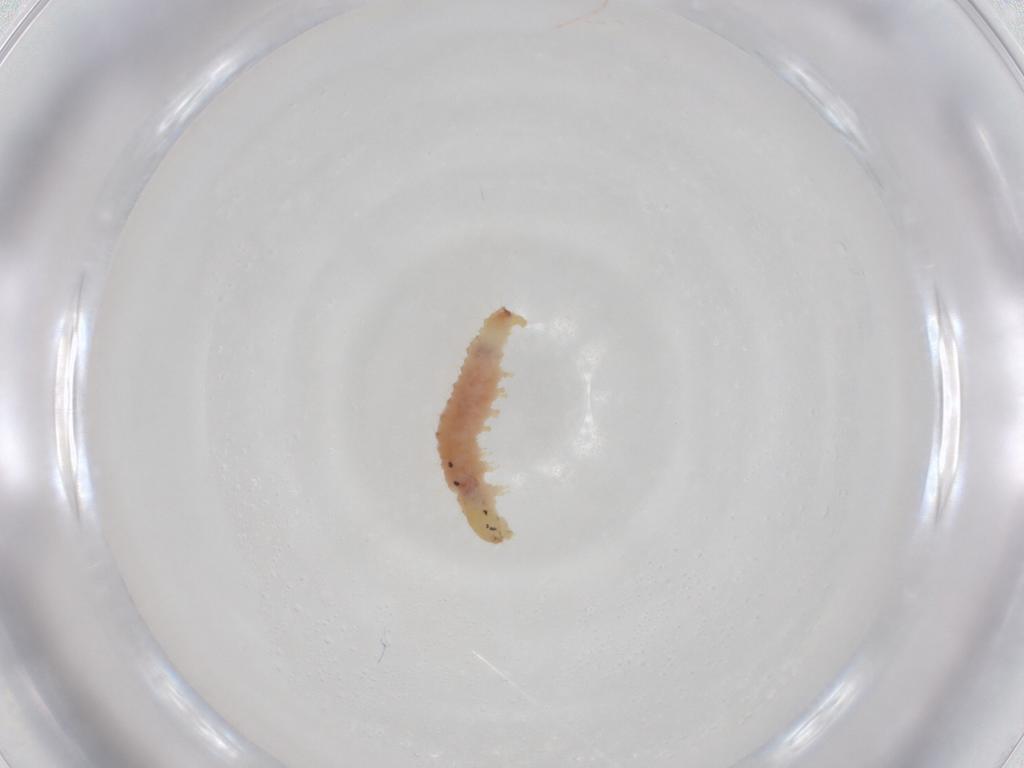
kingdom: Animalia
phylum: Arthropoda
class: Insecta
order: Lepidoptera
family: Crambidae
